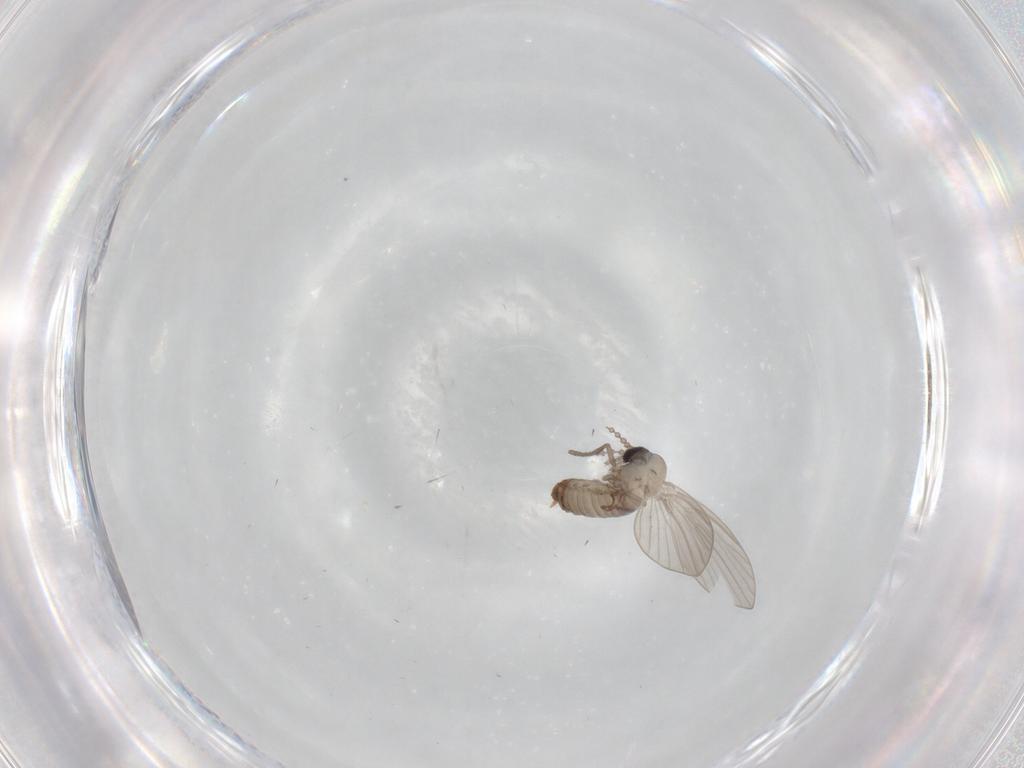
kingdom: Animalia
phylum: Arthropoda
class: Insecta
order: Diptera
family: Psychodidae
